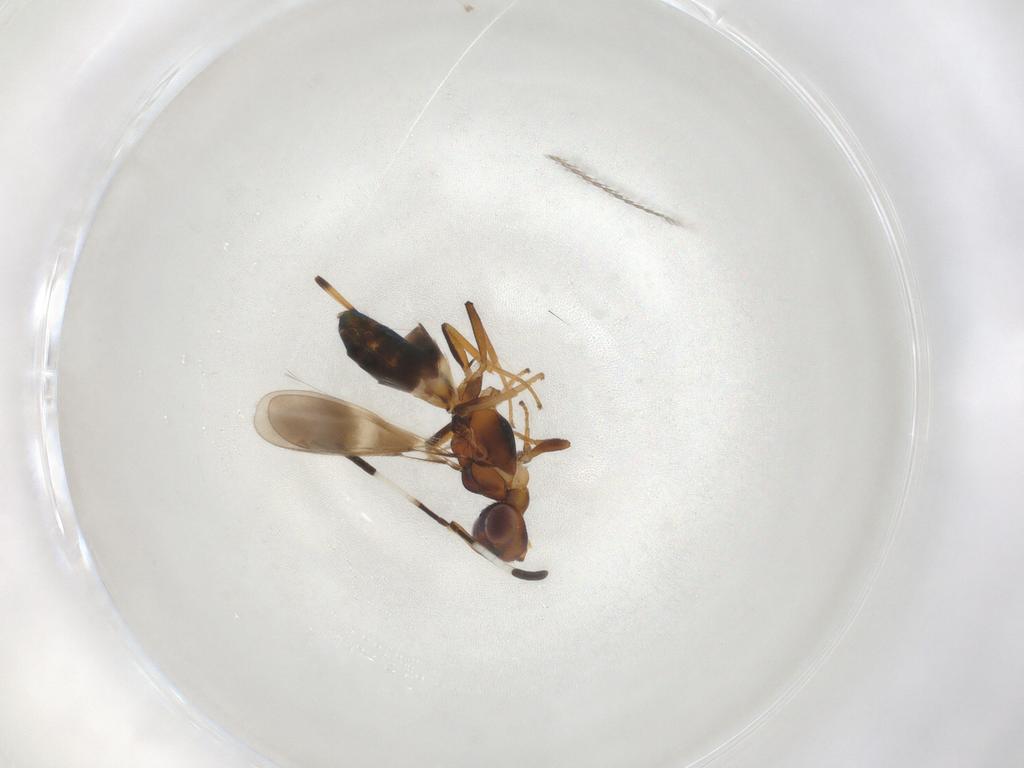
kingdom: Animalia
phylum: Arthropoda
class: Insecta
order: Hymenoptera
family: Eupelmidae
